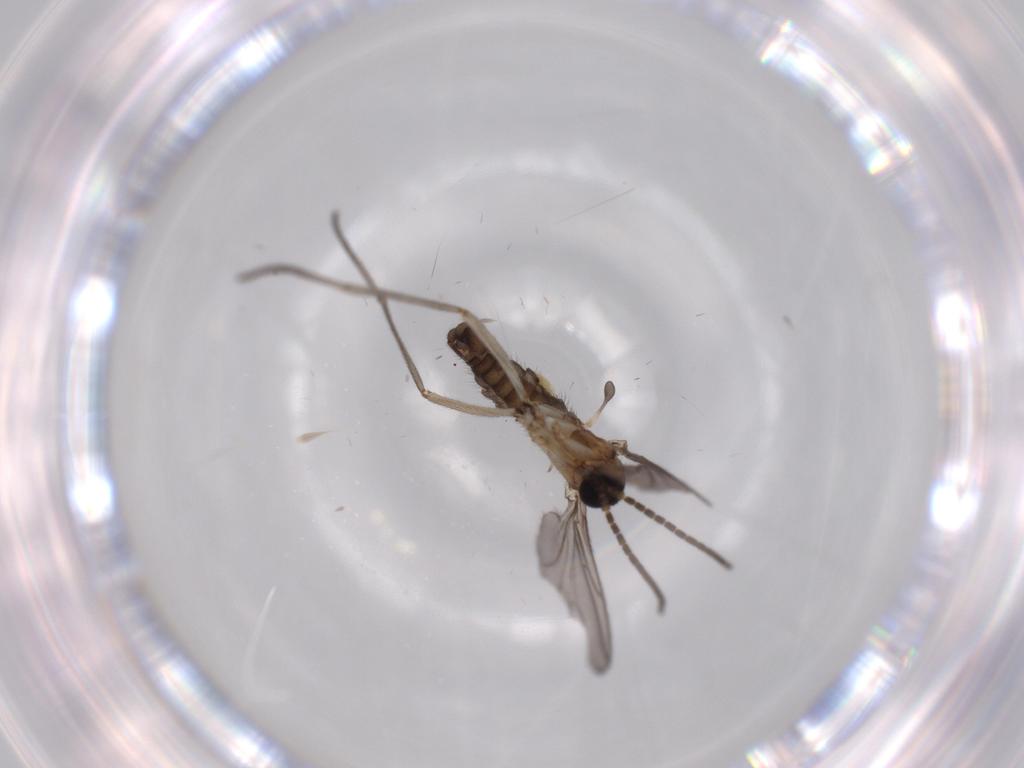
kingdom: Animalia
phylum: Arthropoda
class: Insecta
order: Diptera
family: Sciaridae
